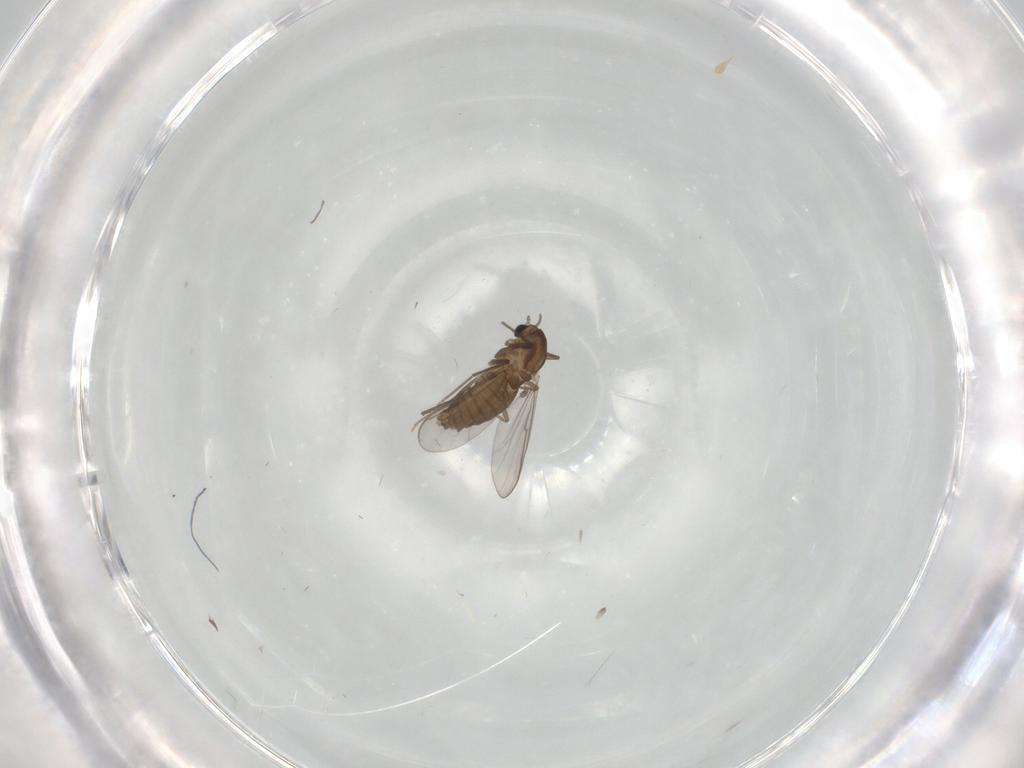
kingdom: Animalia
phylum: Arthropoda
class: Insecta
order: Diptera
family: Chironomidae
